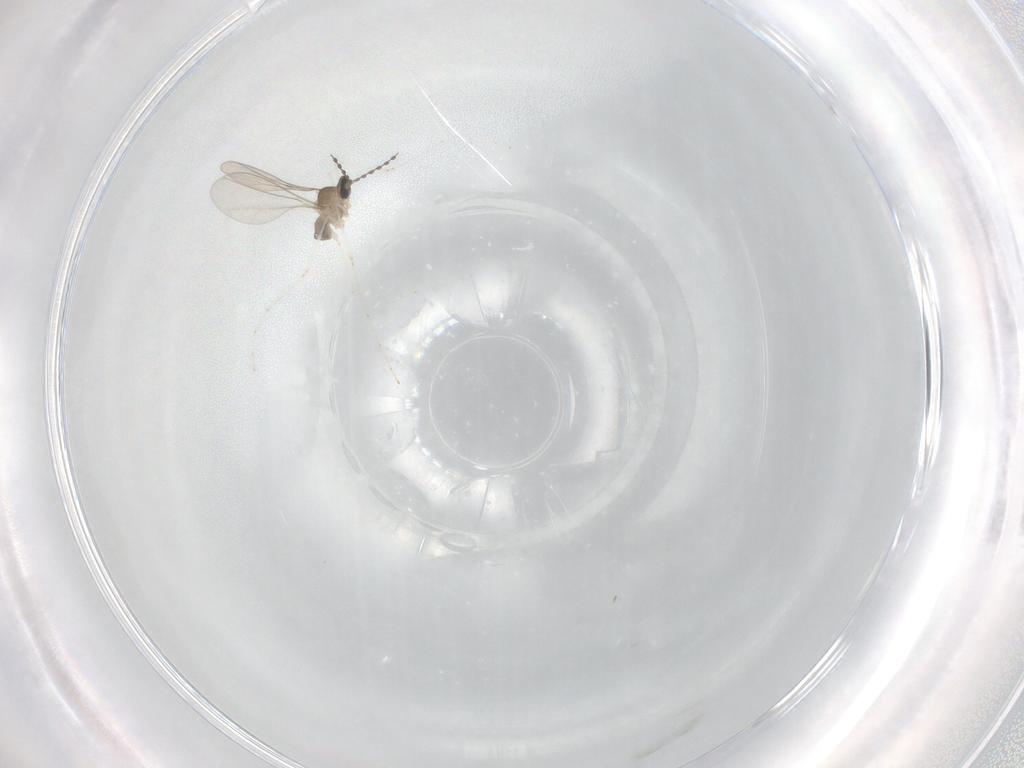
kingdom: Animalia
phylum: Arthropoda
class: Insecta
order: Diptera
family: Cecidomyiidae
